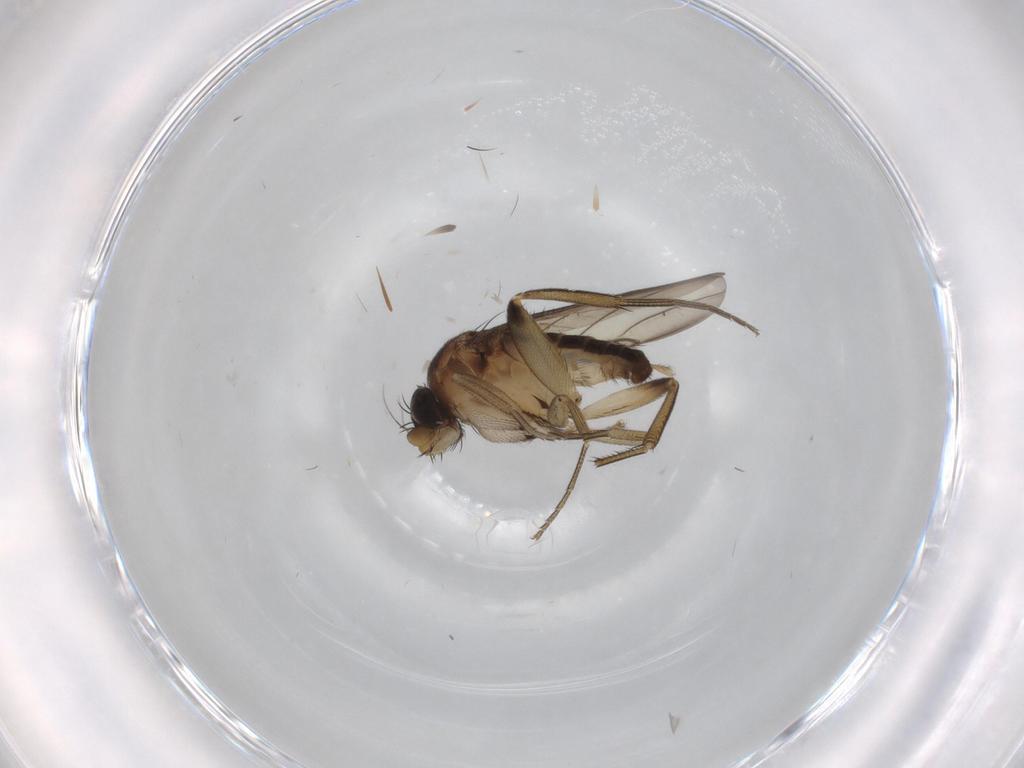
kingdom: Animalia
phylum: Arthropoda
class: Insecta
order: Diptera
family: Phoridae
